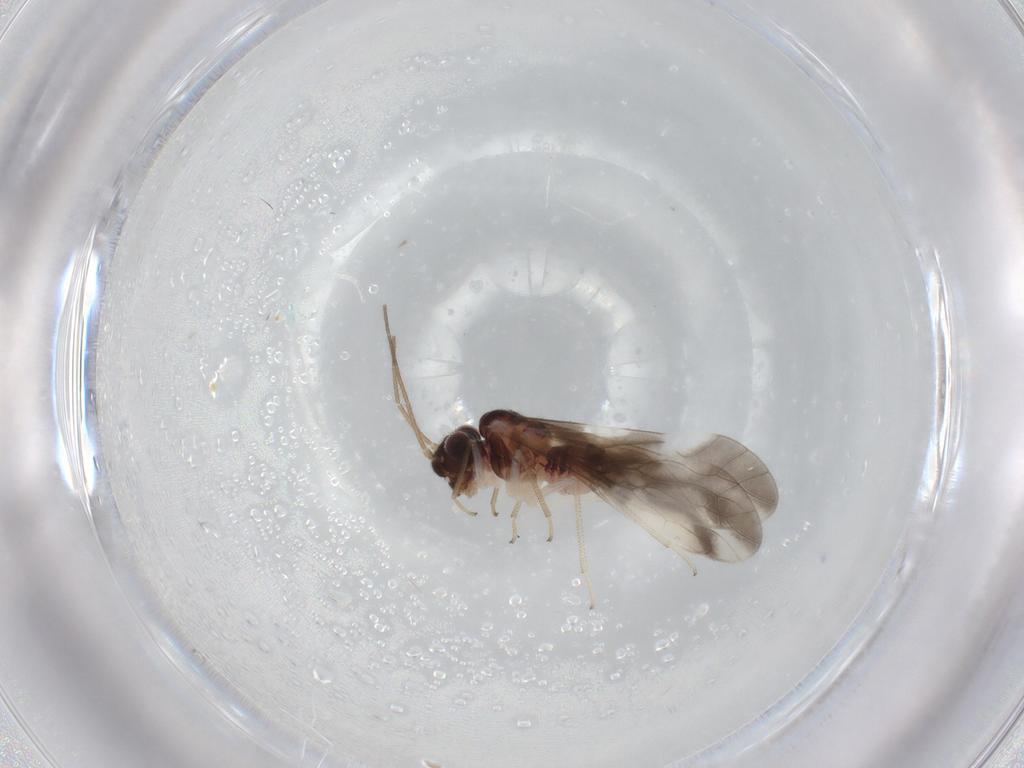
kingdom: Animalia
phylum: Arthropoda
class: Insecta
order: Psocodea
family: Caeciliusidae
